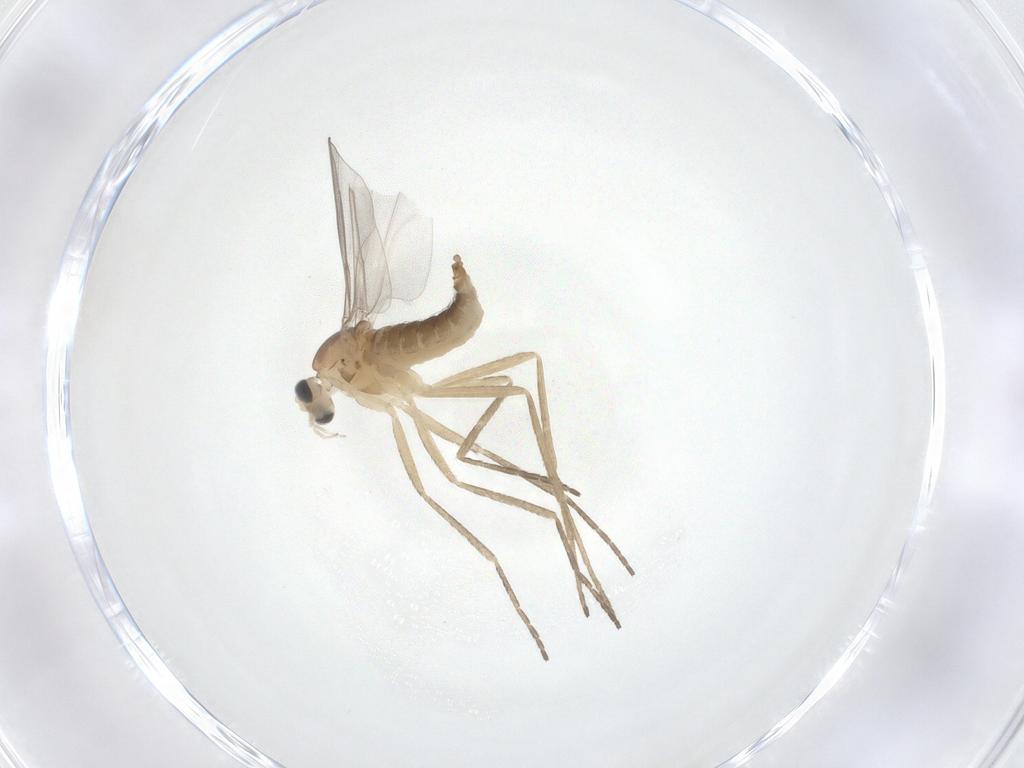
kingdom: Animalia
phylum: Arthropoda
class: Insecta
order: Diptera
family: Cecidomyiidae
